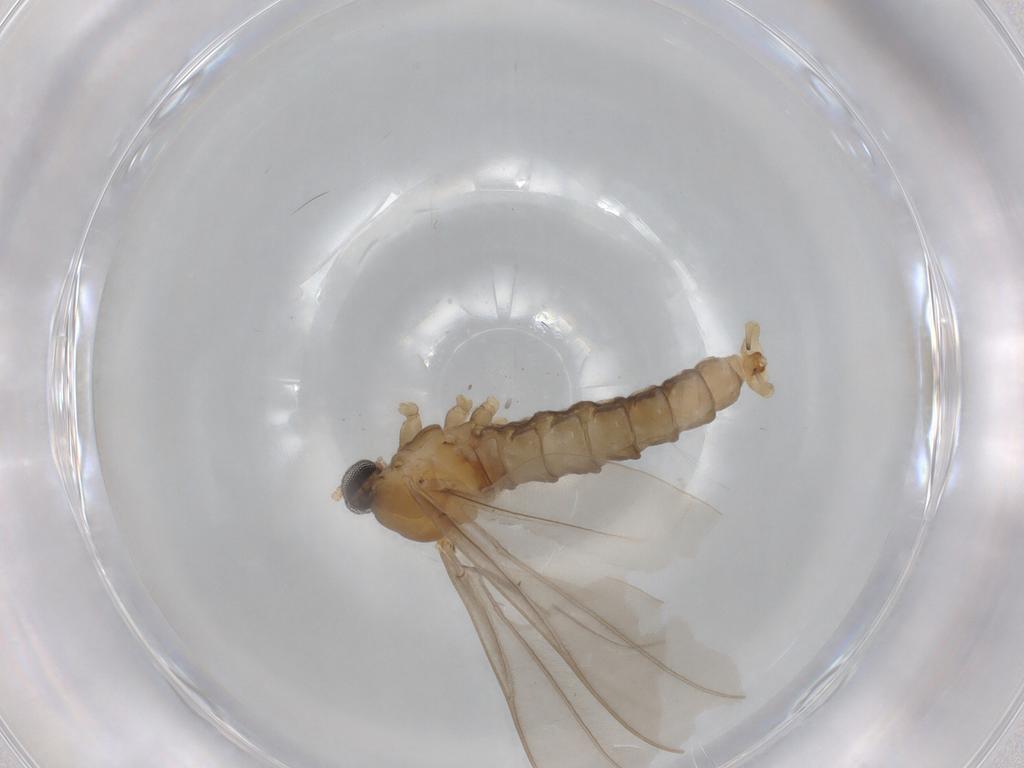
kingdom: Animalia
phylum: Arthropoda
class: Insecta
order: Diptera
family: Cecidomyiidae
